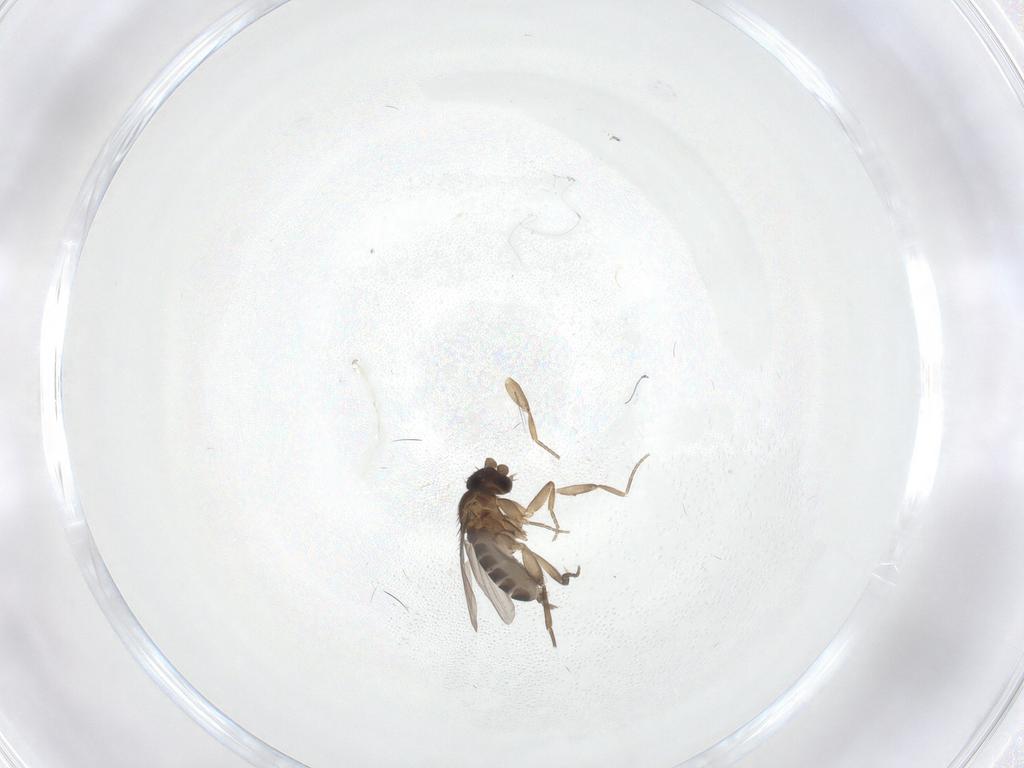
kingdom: Animalia
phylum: Arthropoda
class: Insecta
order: Diptera
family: Phoridae
